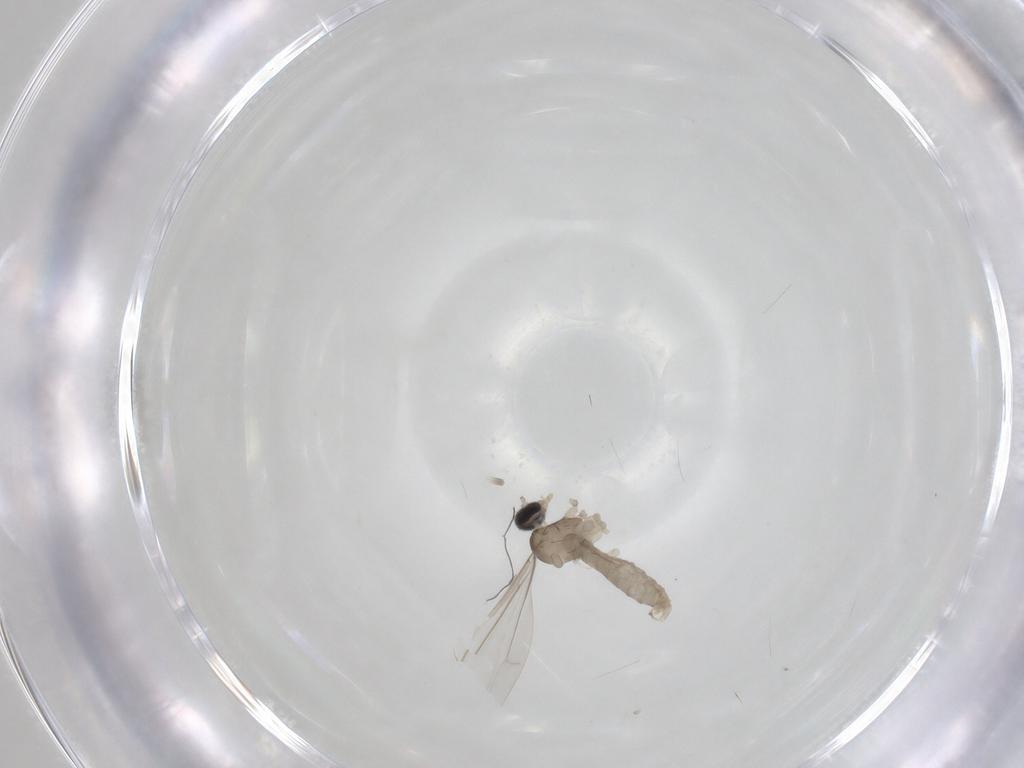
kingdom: Animalia
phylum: Arthropoda
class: Insecta
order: Diptera
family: Cecidomyiidae
